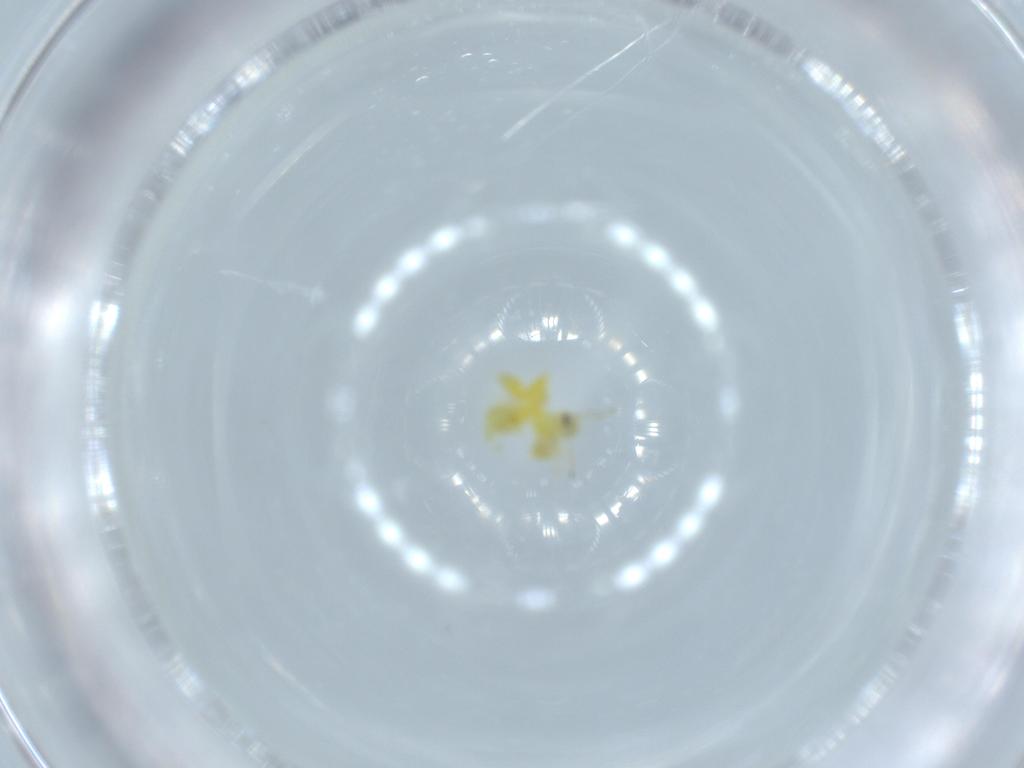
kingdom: Animalia
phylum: Arthropoda
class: Insecta
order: Hemiptera
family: Aleyrodidae
